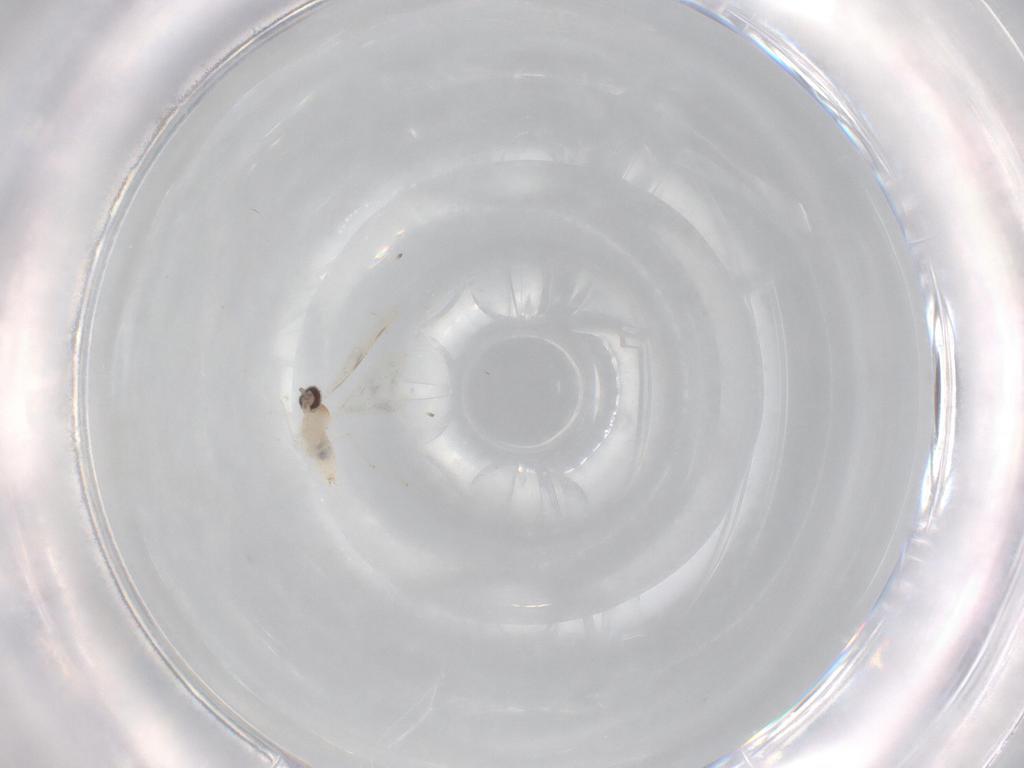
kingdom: Animalia
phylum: Arthropoda
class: Insecta
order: Diptera
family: Cecidomyiidae
